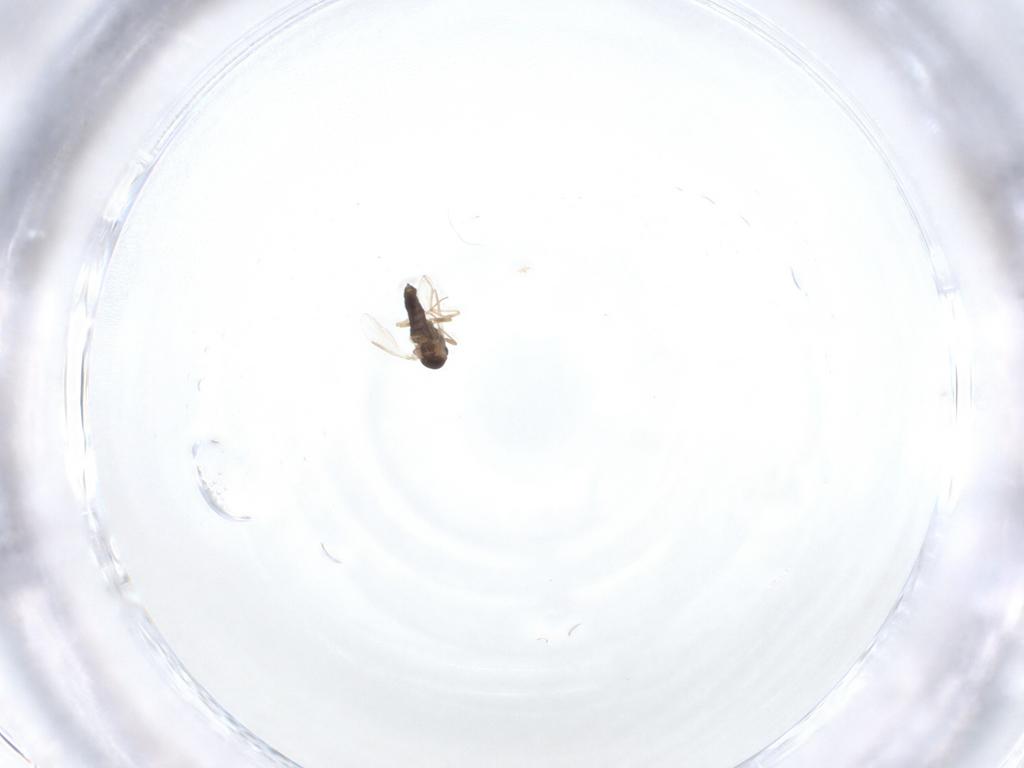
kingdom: Animalia
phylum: Arthropoda
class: Insecta
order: Diptera
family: Chironomidae
